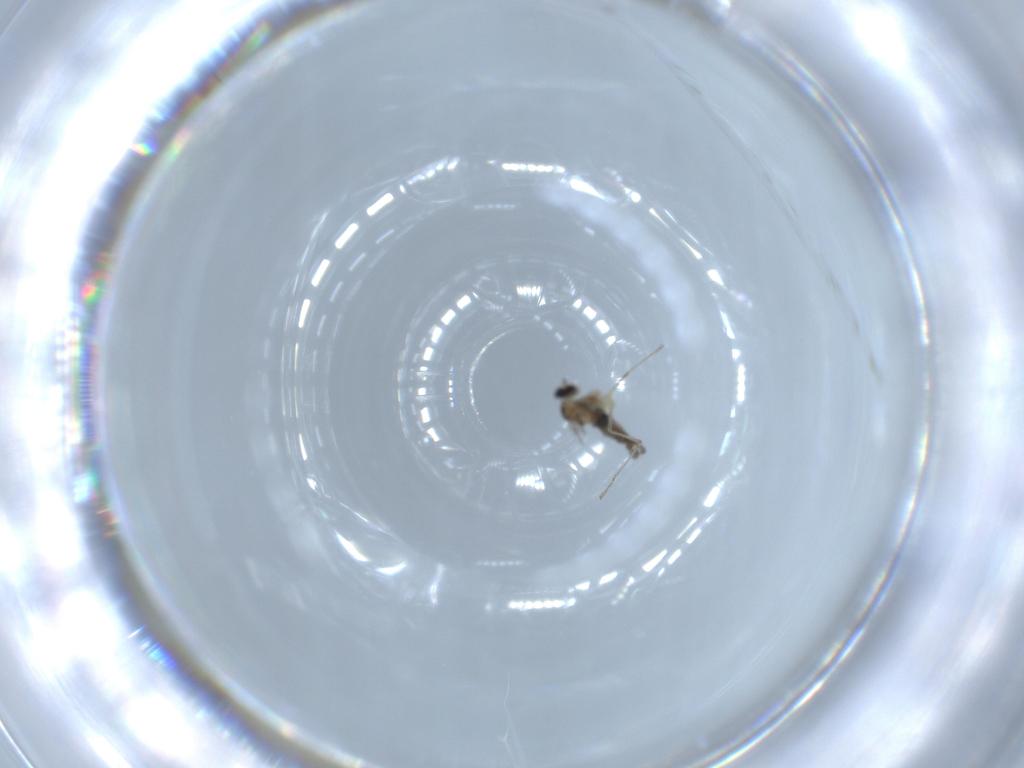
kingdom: Animalia
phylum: Arthropoda
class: Insecta
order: Diptera
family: Cecidomyiidae
